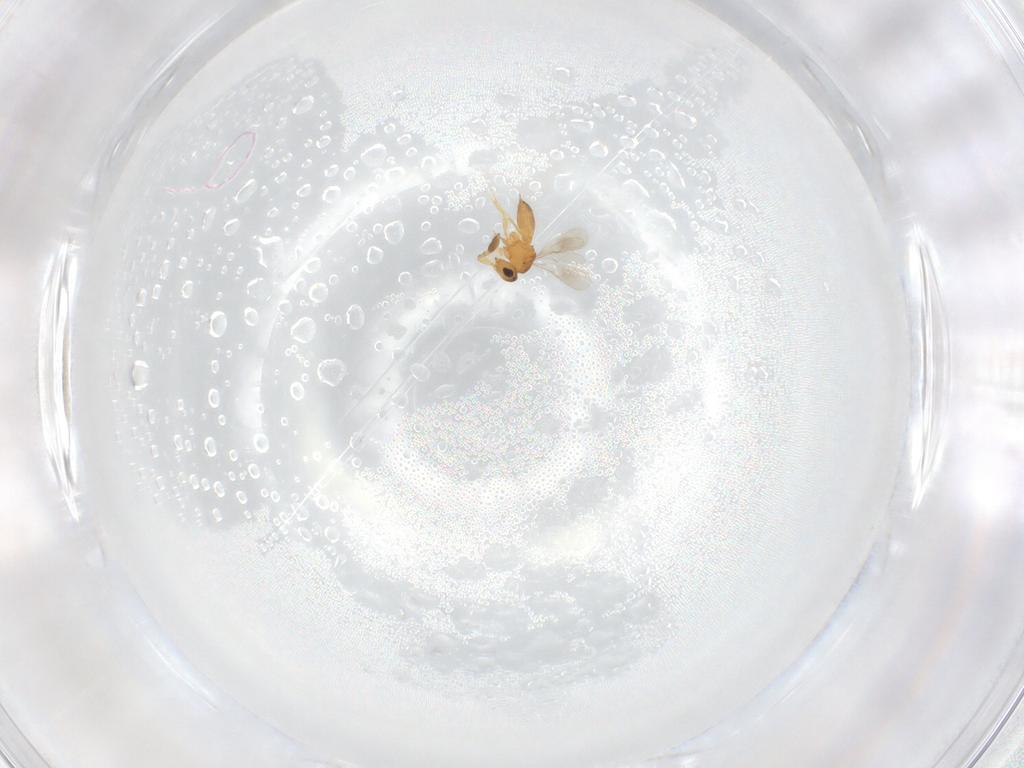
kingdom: Animalia
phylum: Arthropoda
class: Insecta
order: Hymenoptera
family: Scelionidae
